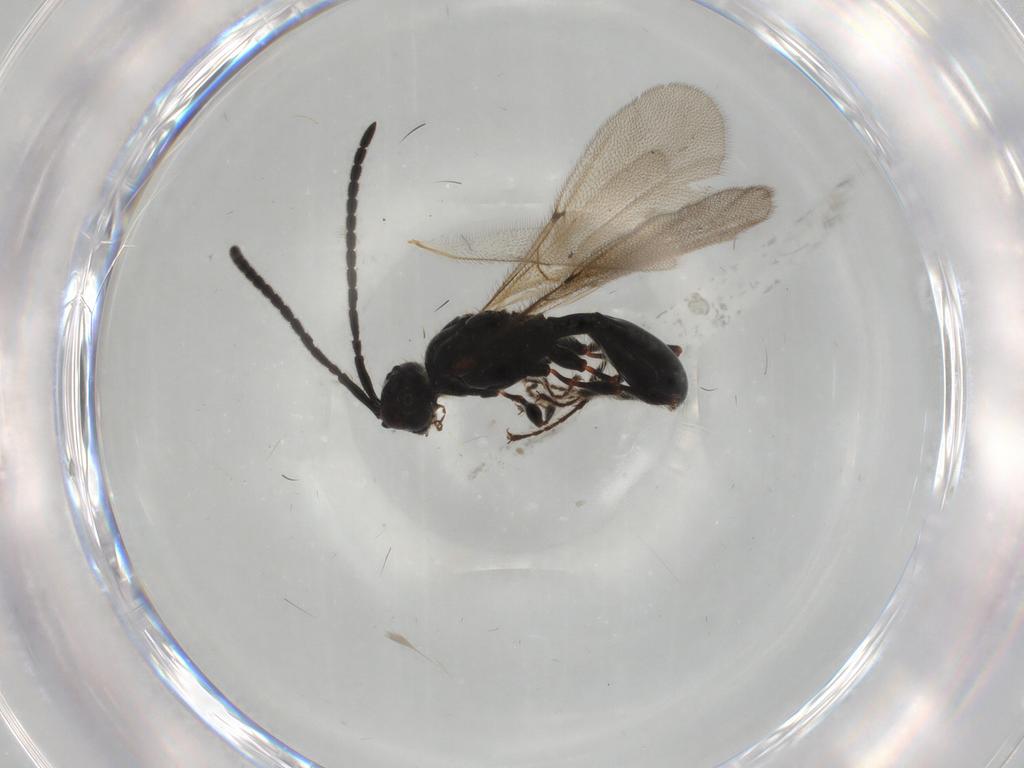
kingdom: Animalia
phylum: Arthropoda
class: Insecta
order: Hymenoptera
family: Diapriidae
